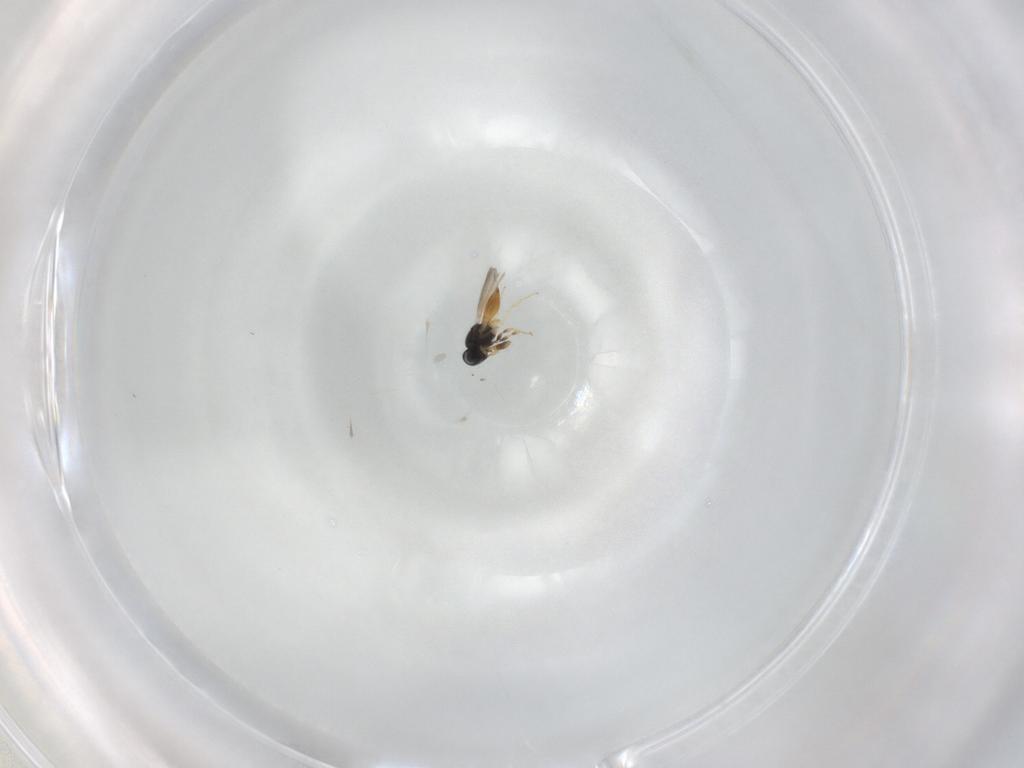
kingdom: Animalia
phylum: Arthropoda
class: Insecta
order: Hymenoptera
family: Scelionidae
